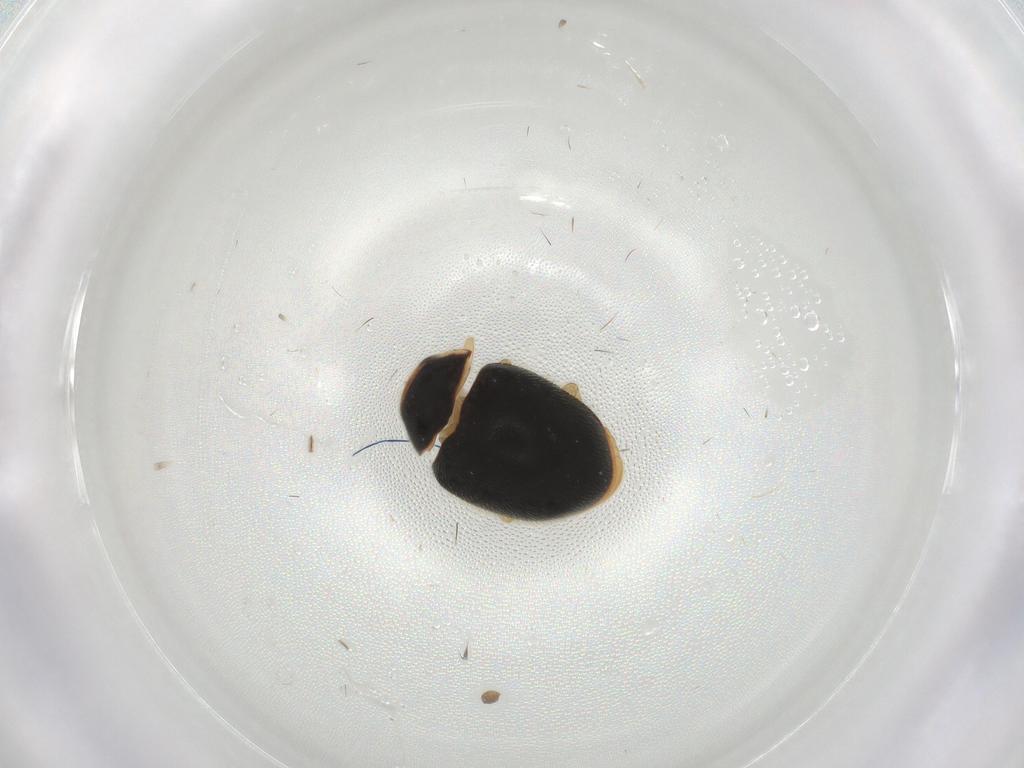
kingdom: Animalia
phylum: Arthropoda
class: Insecta
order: Coleoptera
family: Coccinellidae
